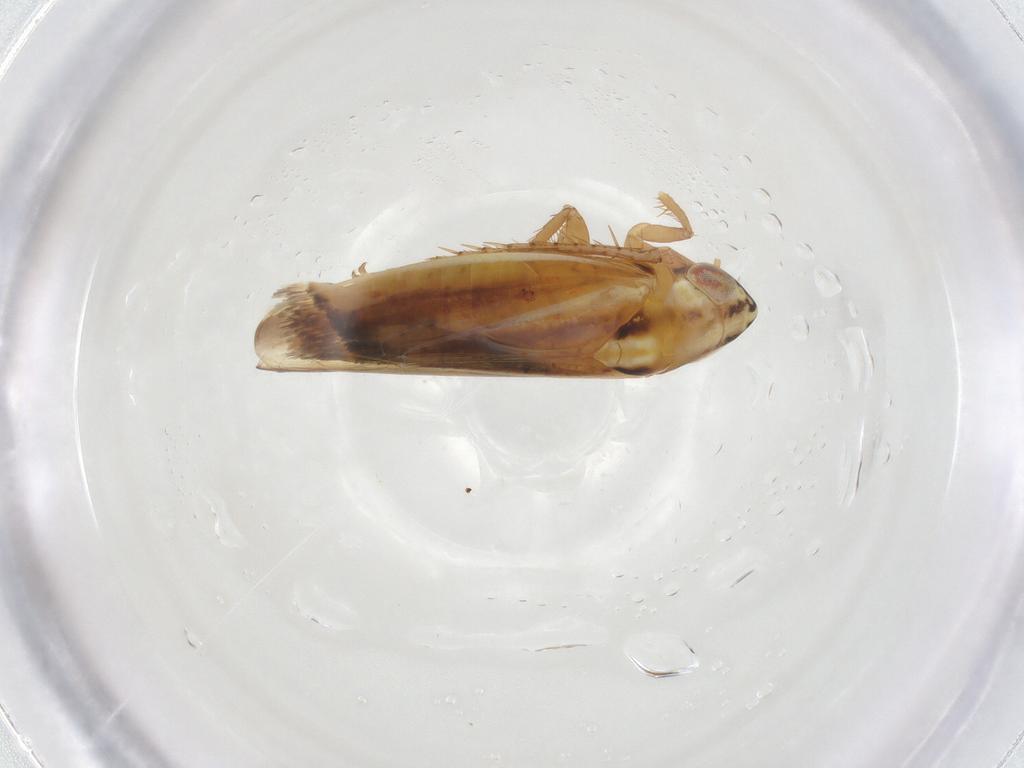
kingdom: Animalia
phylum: Arthropoda
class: Insecta
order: Hemiptera
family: Cicadellidae
